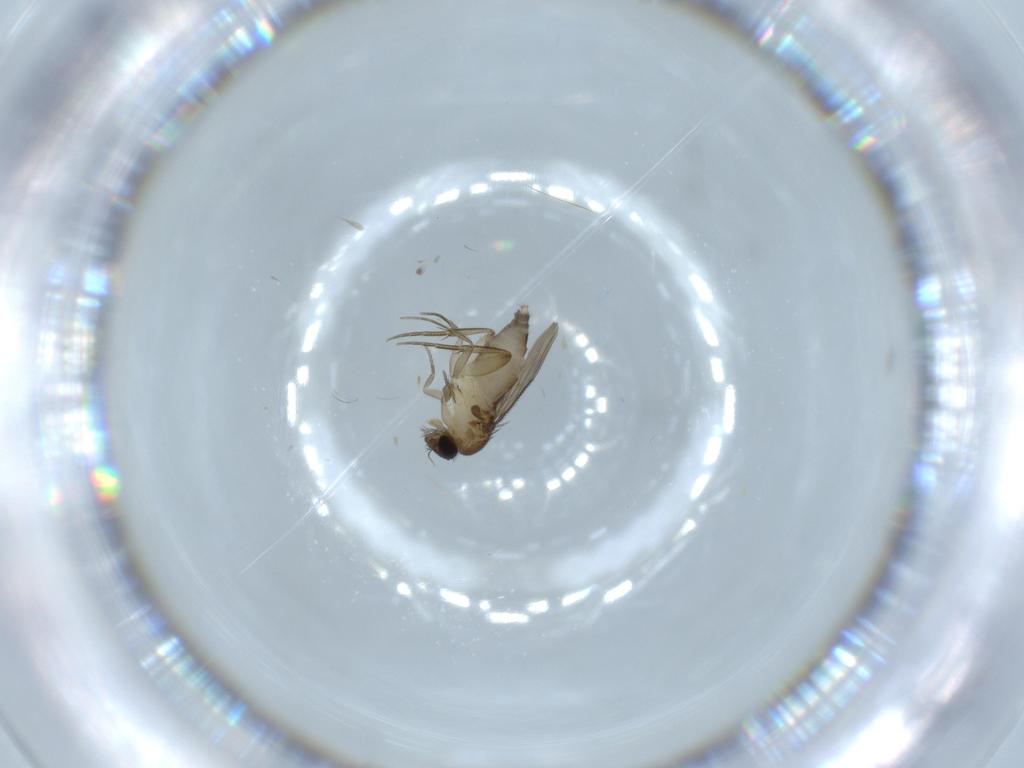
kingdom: Animalia
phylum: Arthropoda
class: Insecta
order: Diptera
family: Phoridae
